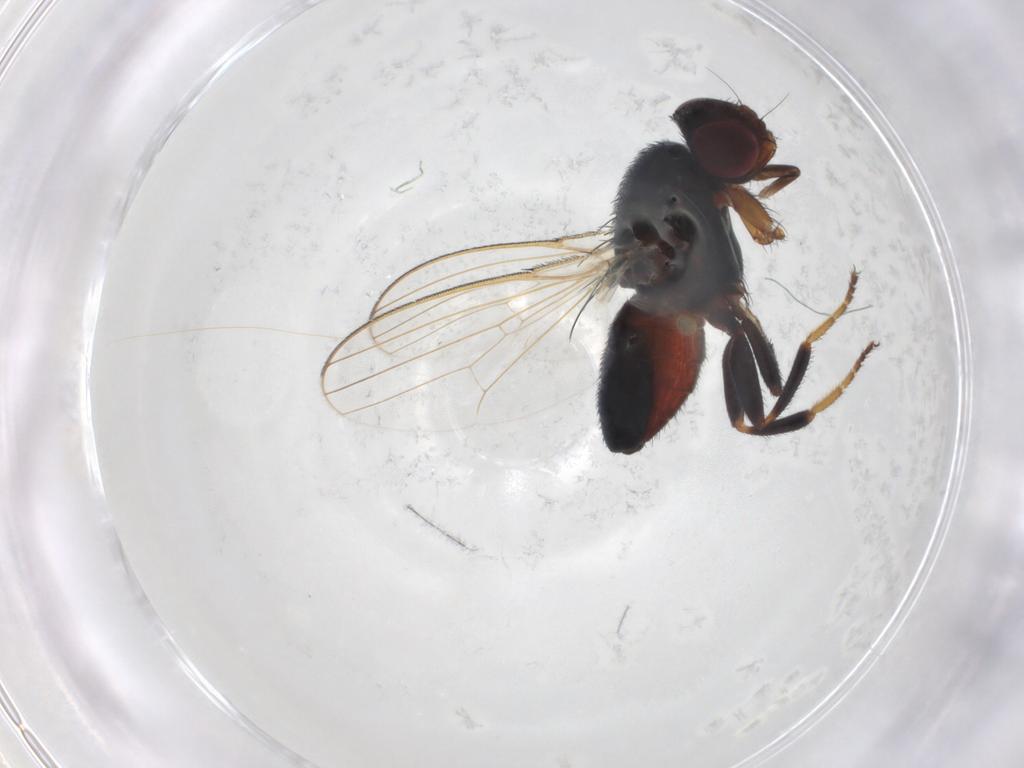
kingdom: Animalia
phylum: Arthropoda
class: Insecta
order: Diptera
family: Milichiidae
